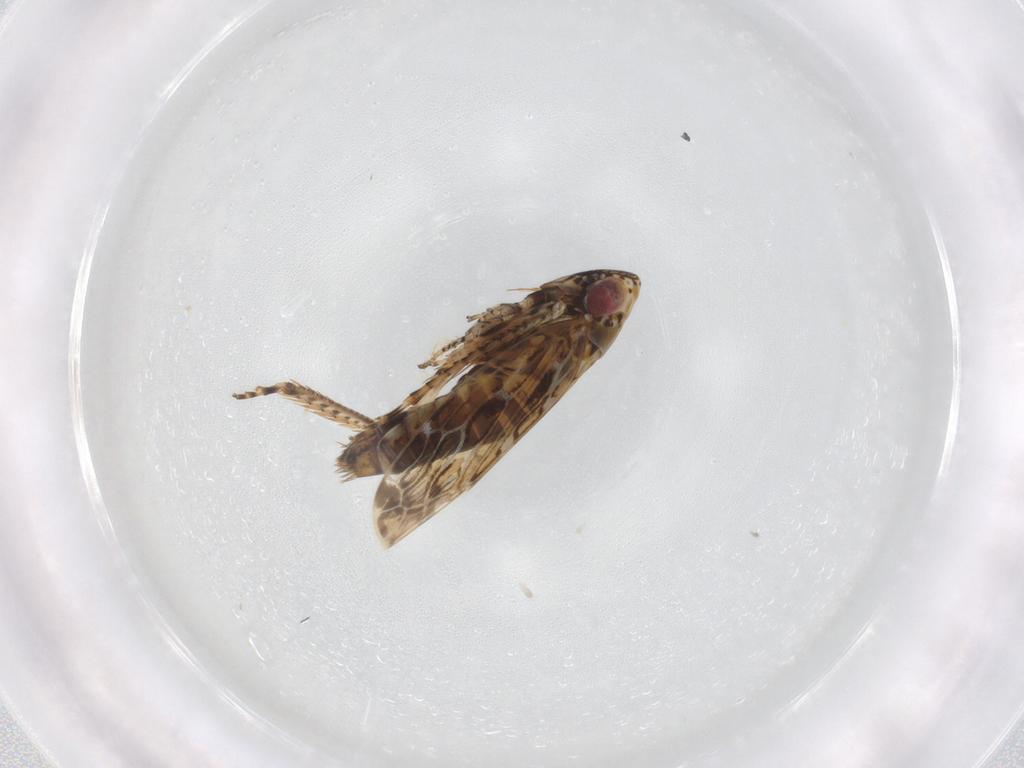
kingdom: Animalia
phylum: Arthropoda
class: Insecta
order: Hemiptera
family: Cicadellidae
